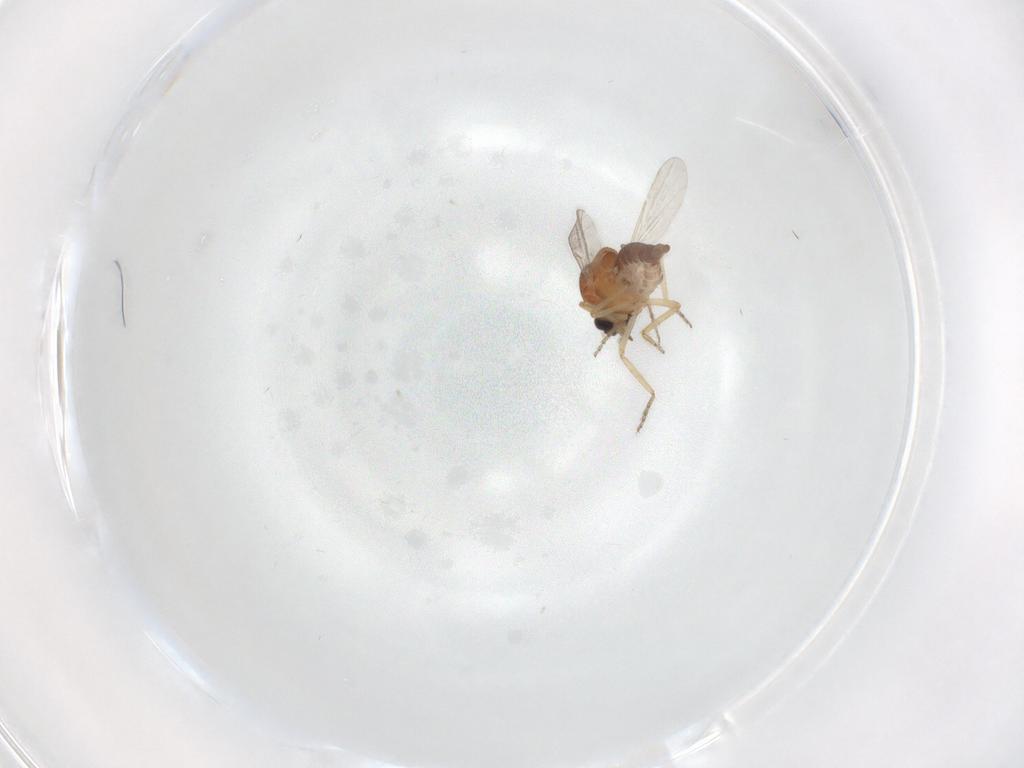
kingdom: Animalia
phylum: Arthropoda
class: Insecta
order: Diptera
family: Ceratopogonidae
